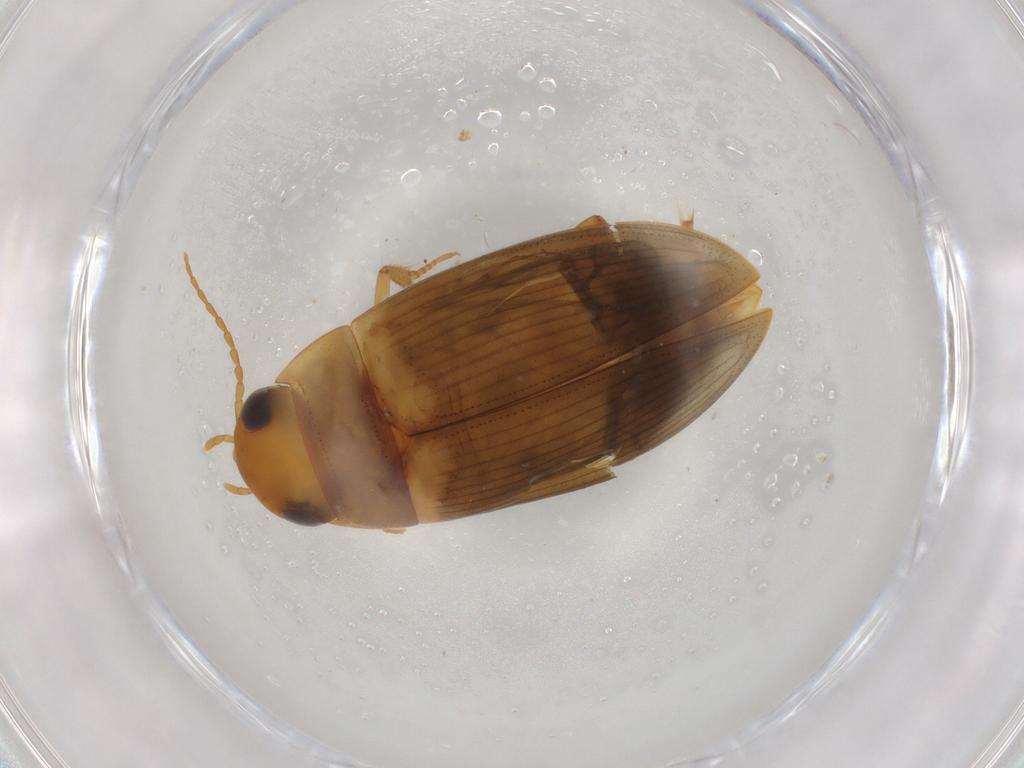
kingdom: Animalia
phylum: Arthropoda
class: Insecta
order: Coleoptera
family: Dytiscidae
